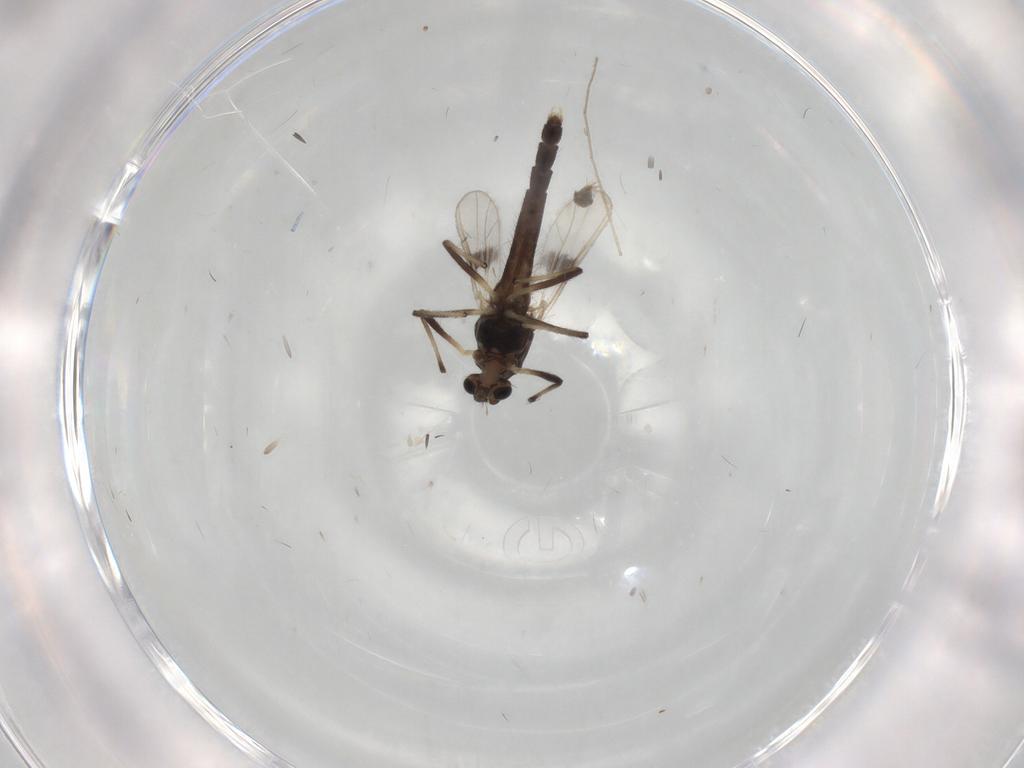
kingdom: Animalia
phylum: Arthropoda
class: Insecta
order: Diptera
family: Chironomidae
